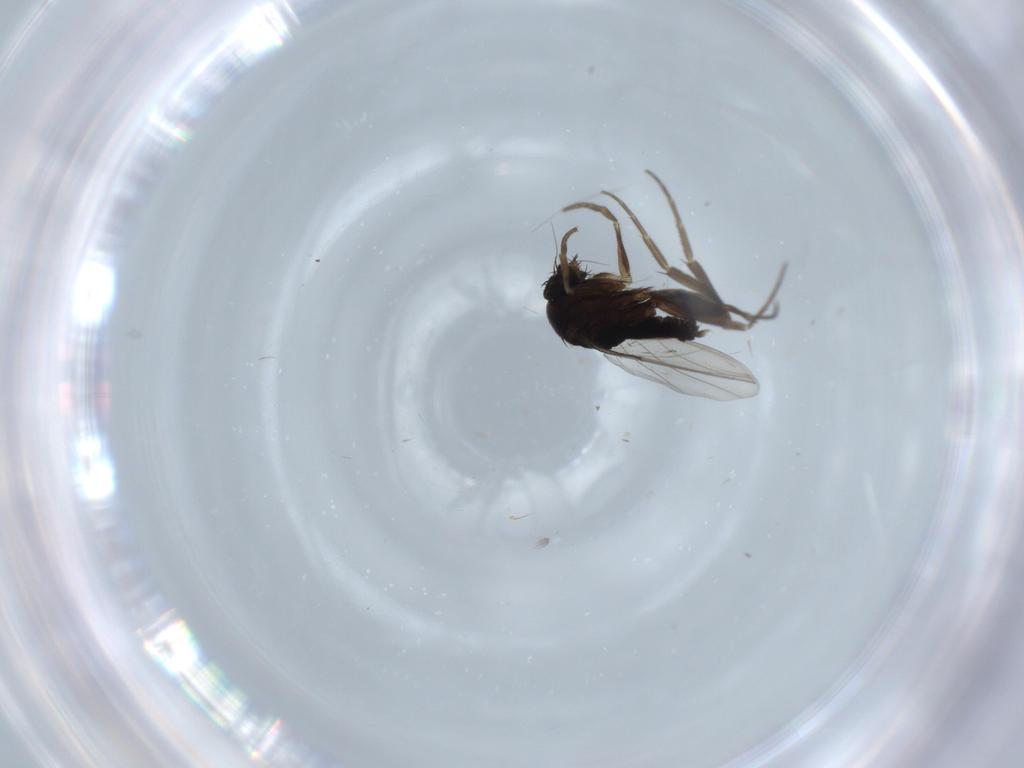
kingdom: Animalia
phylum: Arthropoda
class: Insecta
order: Diptera
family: Phoridae
